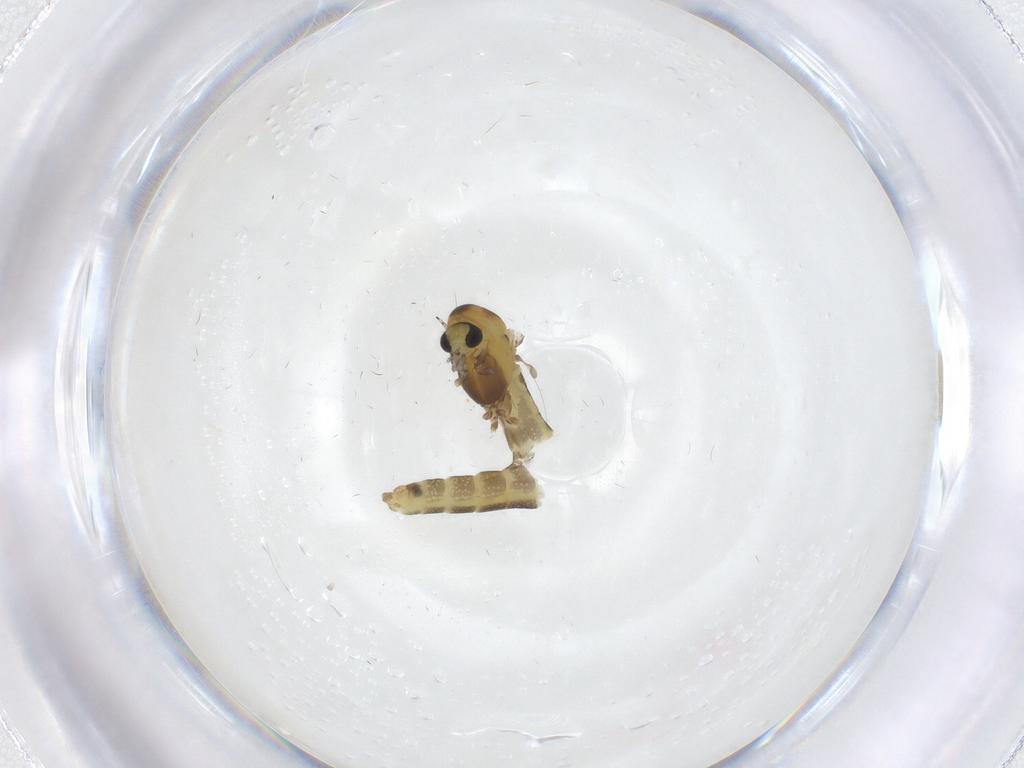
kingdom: Animalia
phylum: Arthropoda
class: Insecta
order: Diptera
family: Chironomidae
